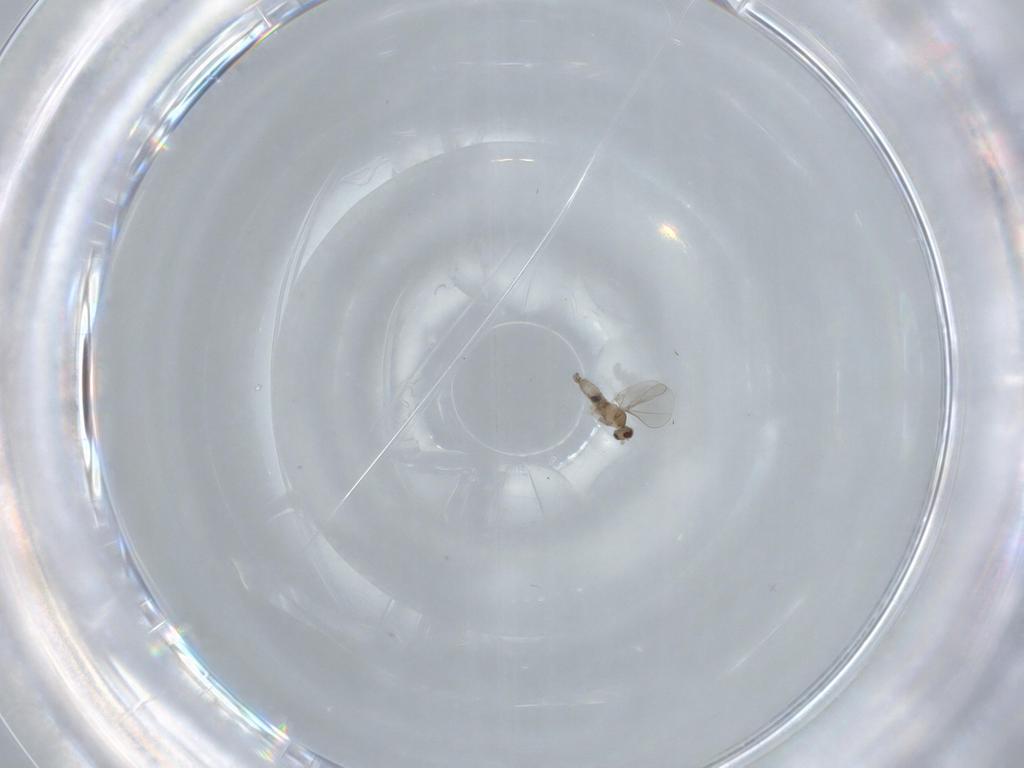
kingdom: Animalia
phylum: Arthropoda
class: Insecta
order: Diptera
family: Cecidomyiidae
